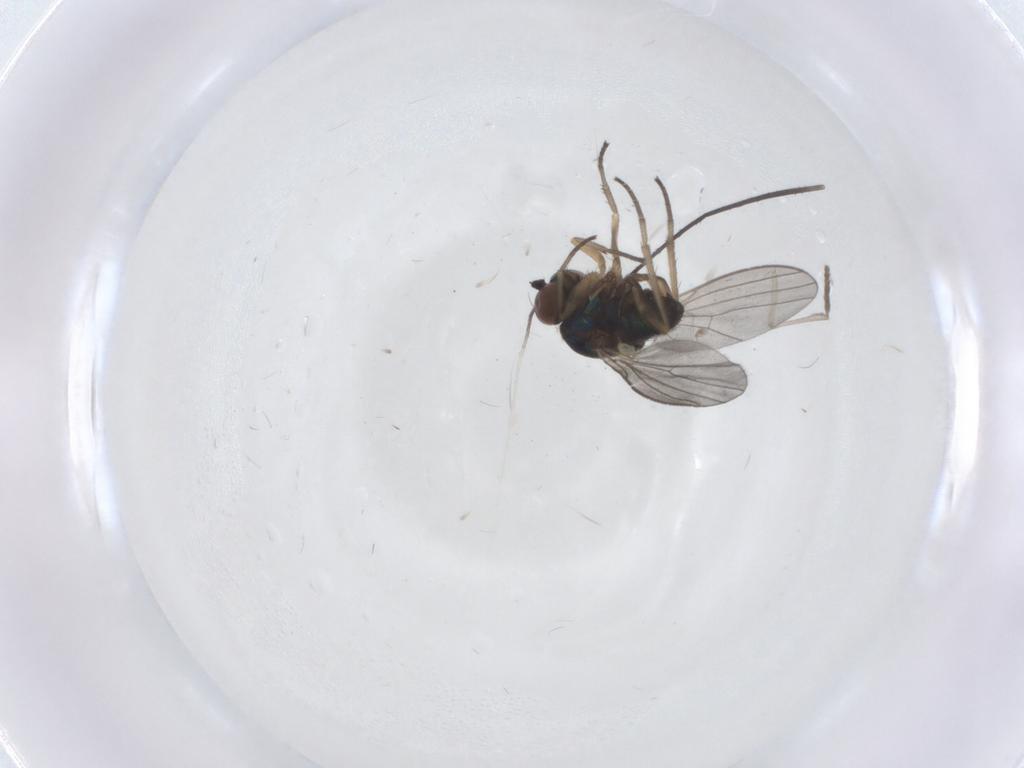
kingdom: Animalia
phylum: Arthropoda
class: Insecta
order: Diptera
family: Dolichopodidae
